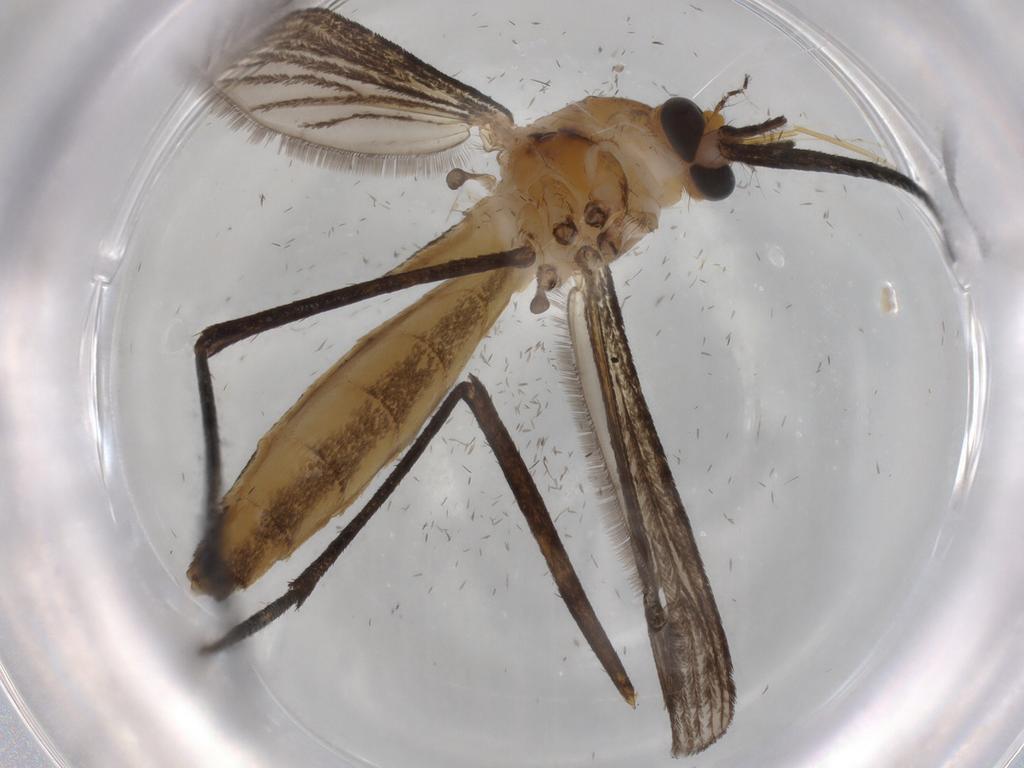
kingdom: Animalia
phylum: Arthropoda
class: Insecta
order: Diptera
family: Culicidae
